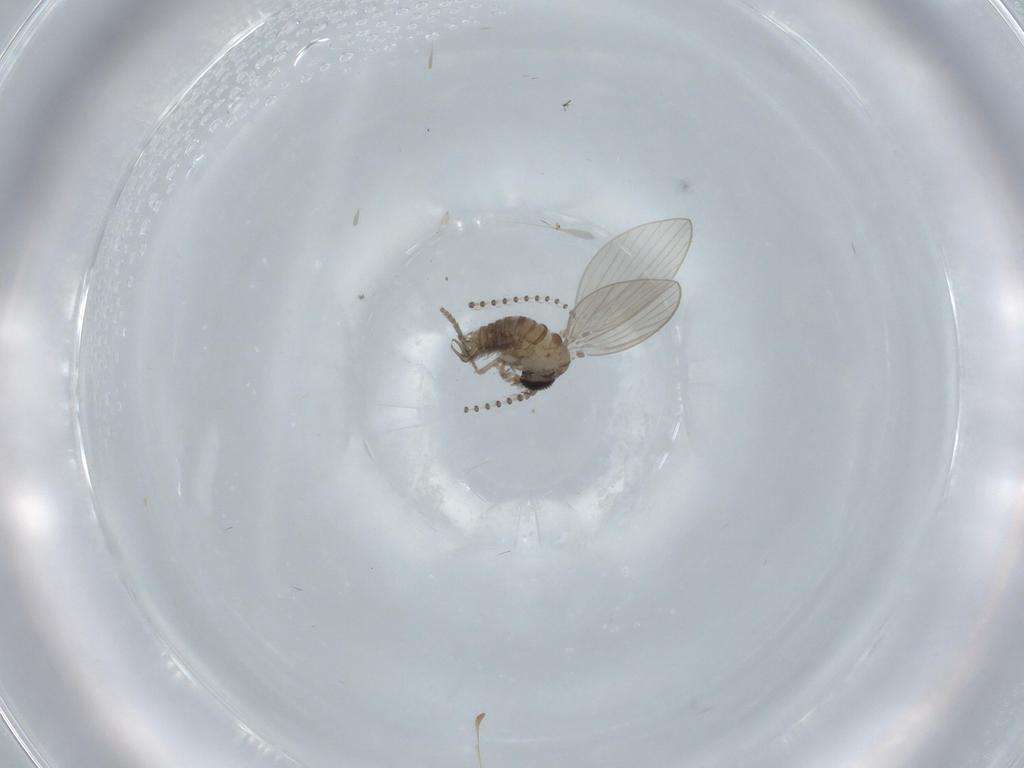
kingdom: Animalia
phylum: Arthropoda
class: Insecta
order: Diptera
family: Psychodidae
